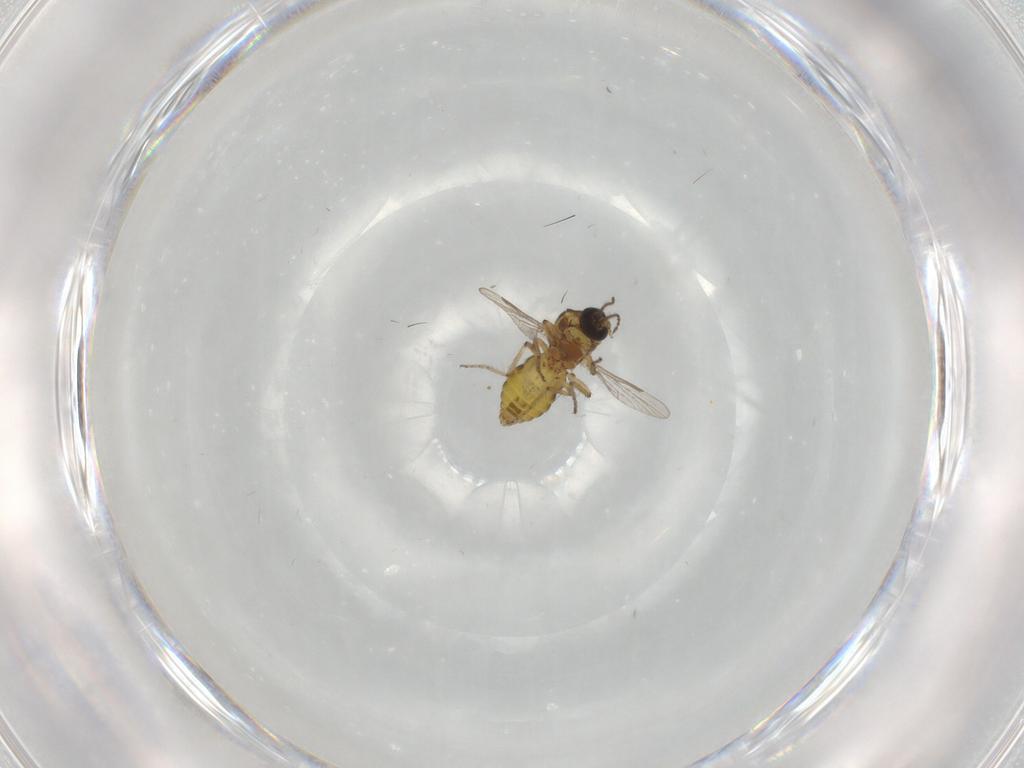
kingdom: Animalia
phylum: Arthropoda
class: Insecta
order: Diptera
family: Ceratopogonidae
